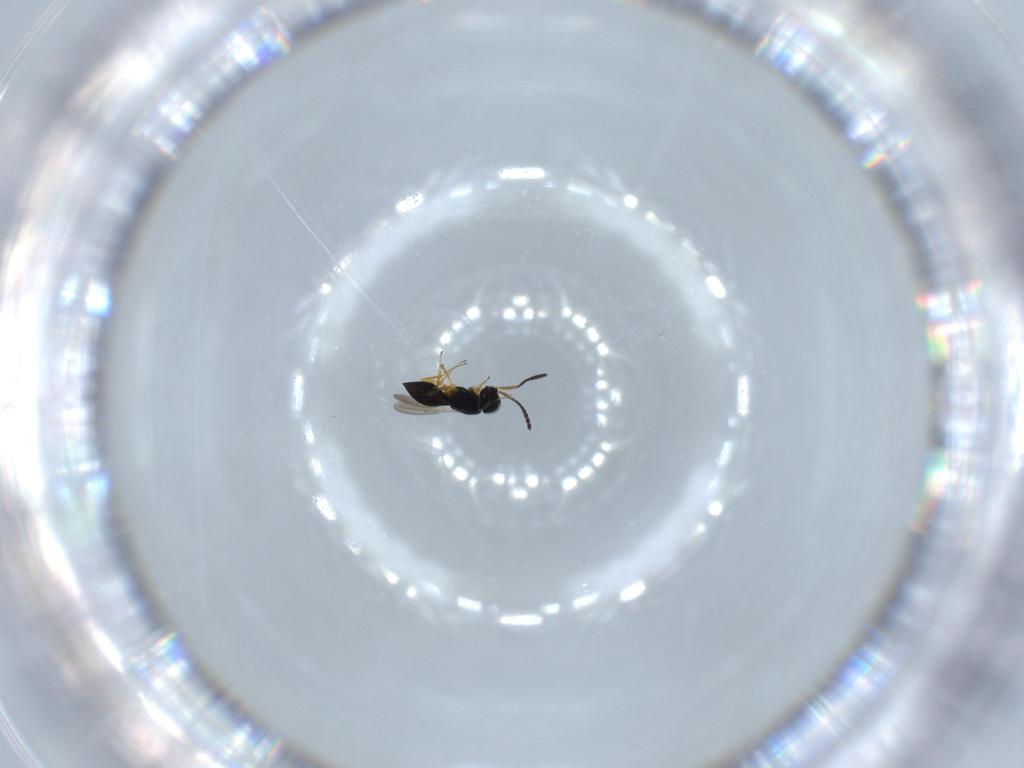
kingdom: Animalia
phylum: Arthropoda
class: Insecta
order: Hymenoptera
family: Scelionidae
